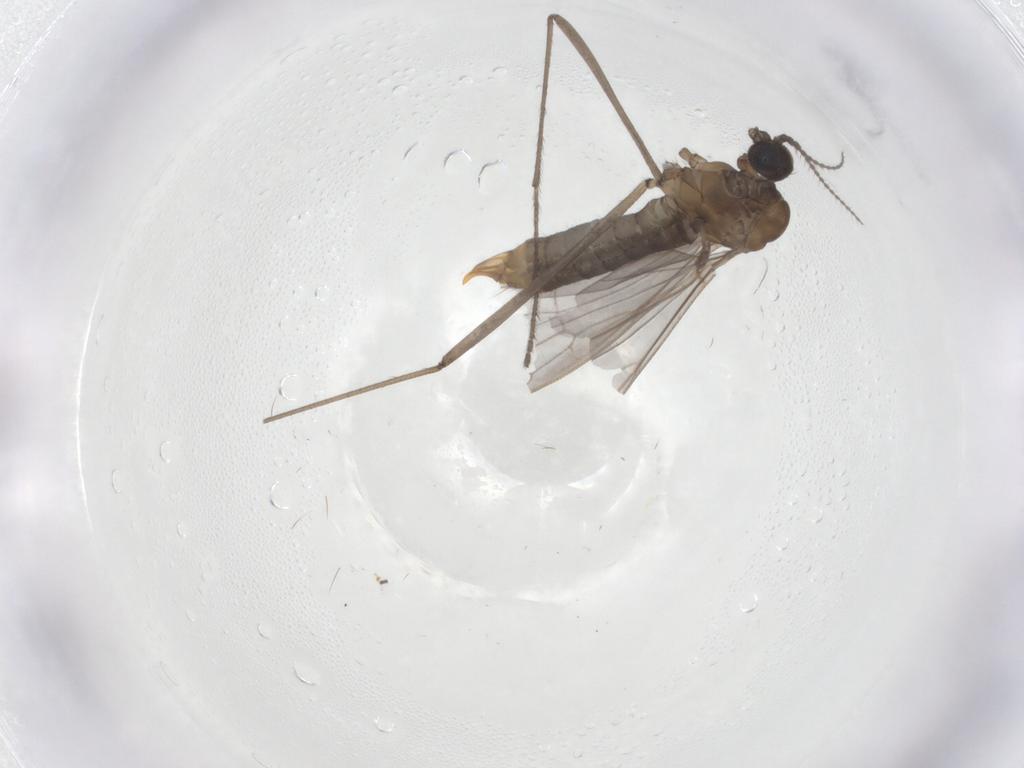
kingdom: Animalia
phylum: Arthropoda
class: Insecta
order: Diptera
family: Limoniidae
